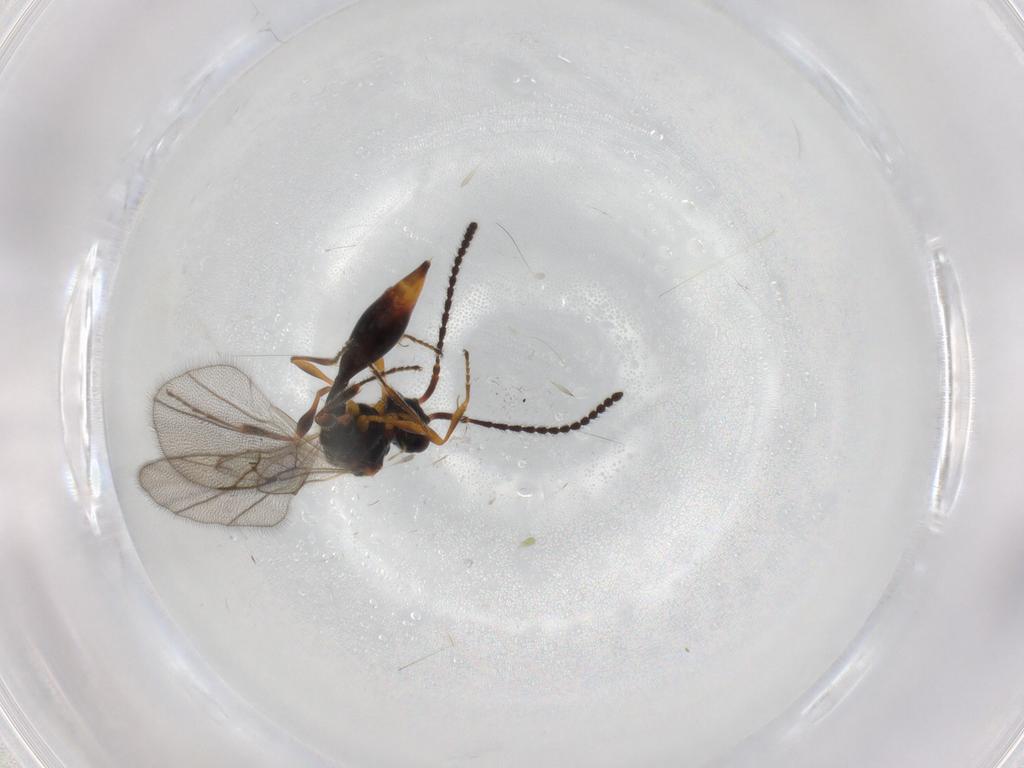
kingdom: Animalia
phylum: Arthropoda
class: Insecta
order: Hymenoptera
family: Diapriidae
